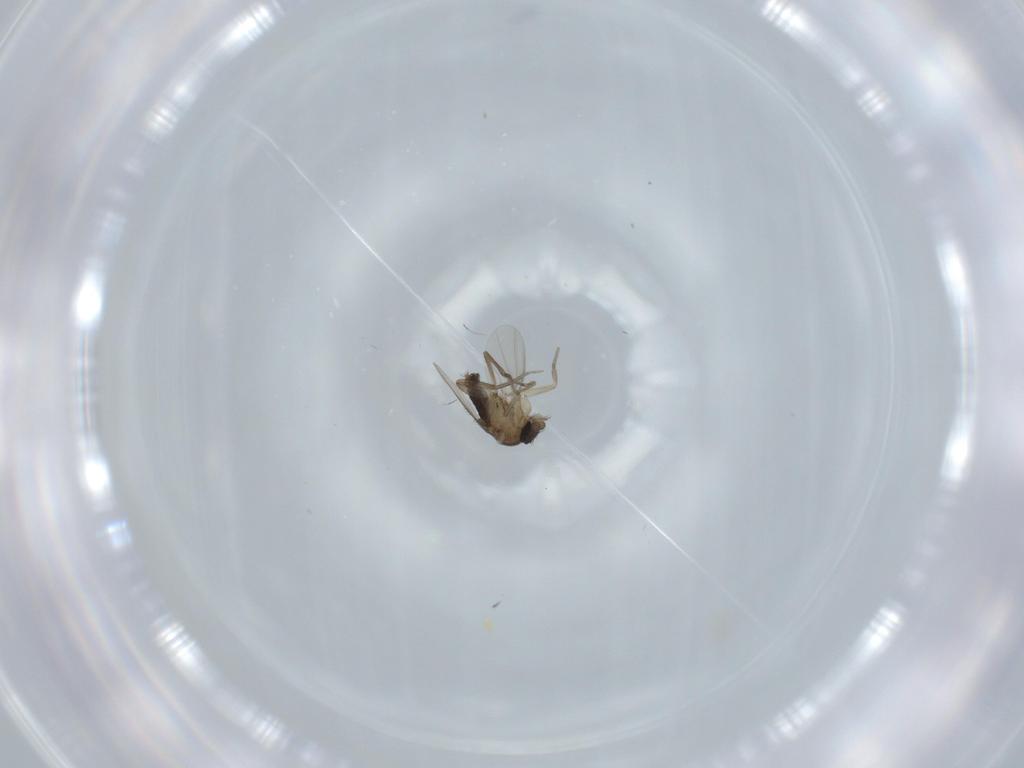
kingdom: Animalia
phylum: Arthropoda
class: Insecta
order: Diptera
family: Phoridae
